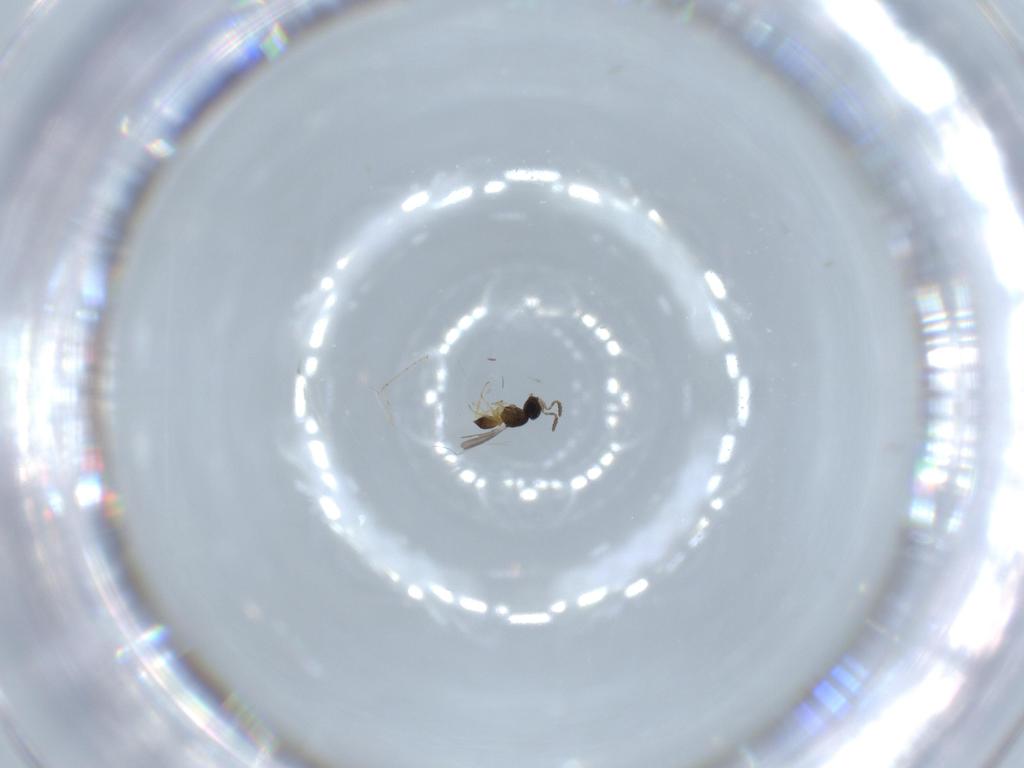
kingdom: Animalia
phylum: Arthropoda
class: Insecta
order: Hymenoptera
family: Scelionidae
